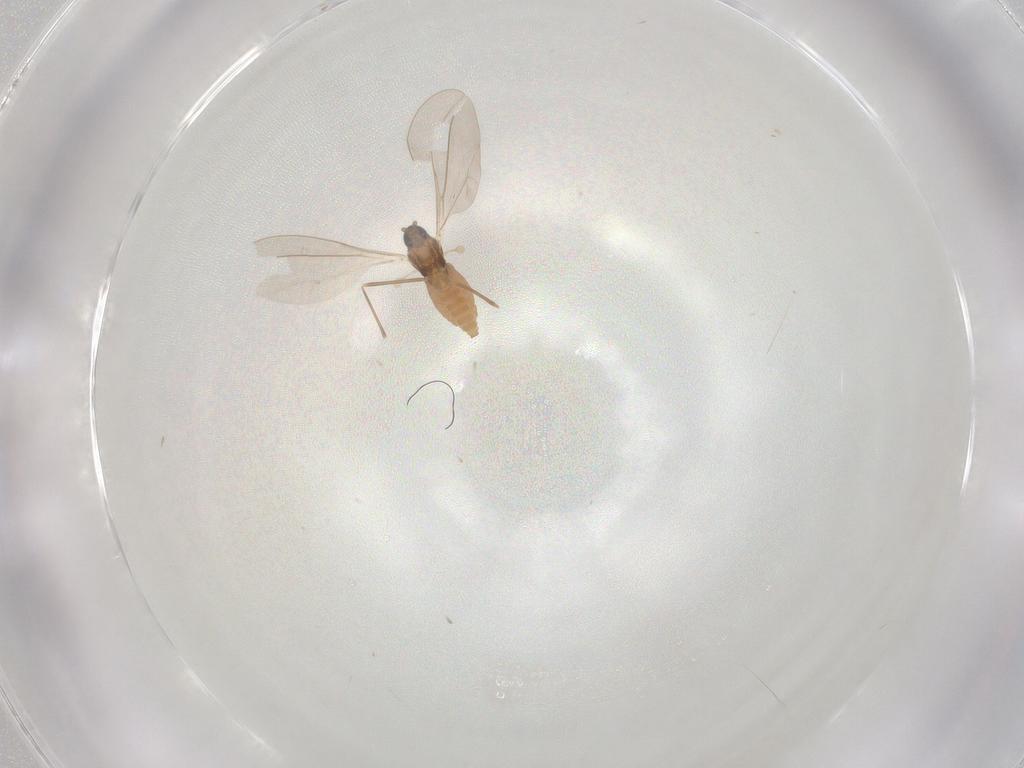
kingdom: Animalia
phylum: Arthropoda
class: Insecta
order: Diptera
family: Cecidomyiidae
